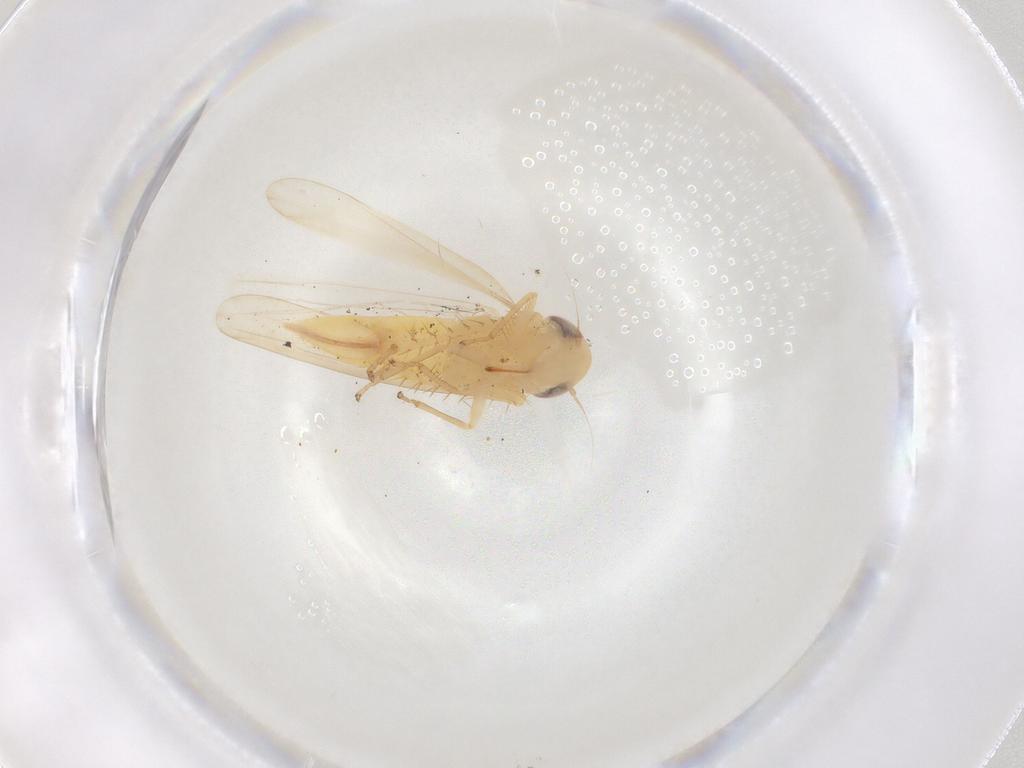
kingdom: Animalia
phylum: Arthropoda
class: Insecta
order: Hemiptera
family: Cicadellidae
